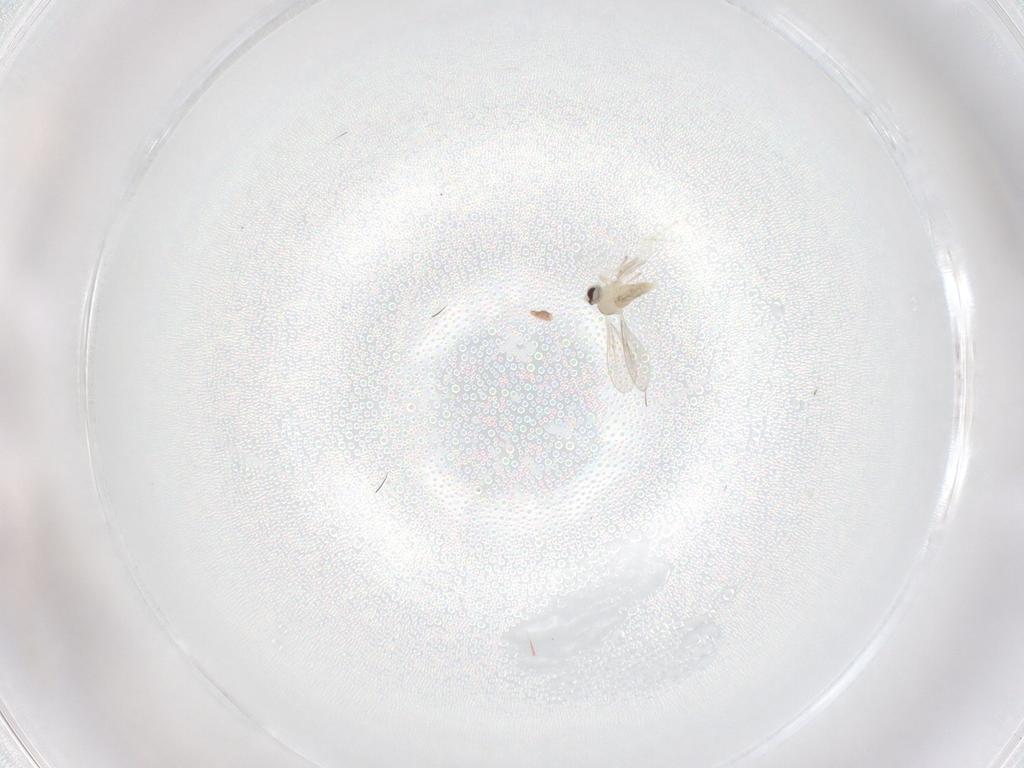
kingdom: Animalia
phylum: Arthropoda
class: Insecta
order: Diptera
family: Cecidomyiidae
